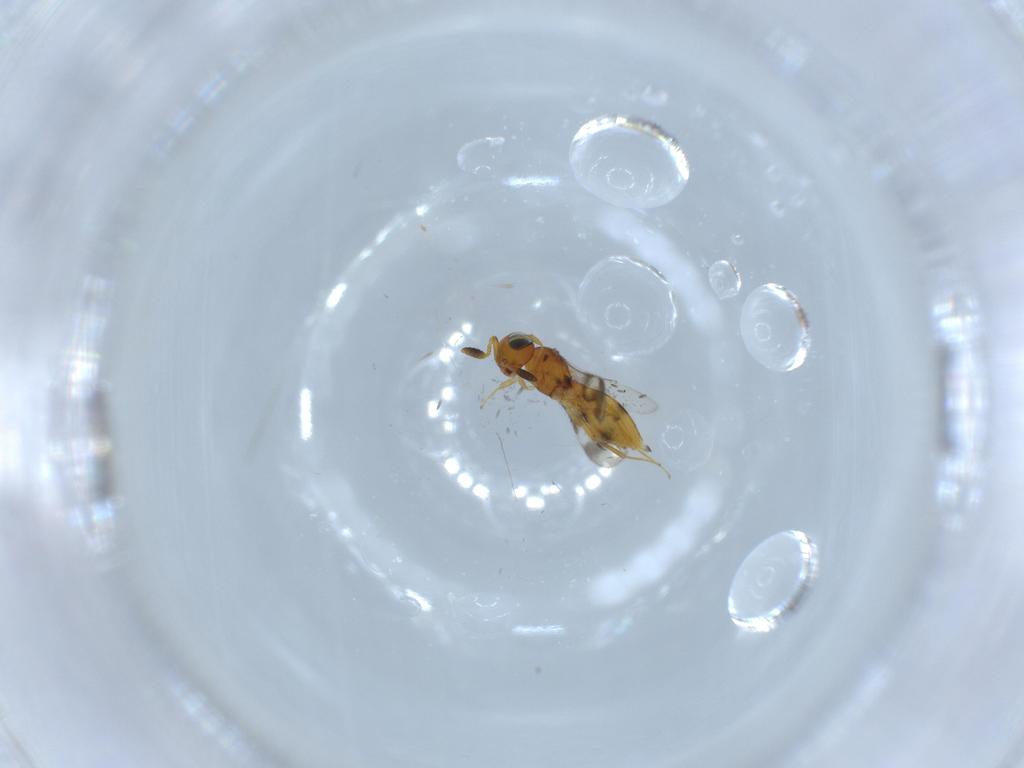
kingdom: Animalia
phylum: Arthropoda
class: Insecta
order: Hymenoptera
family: Scelionidae
